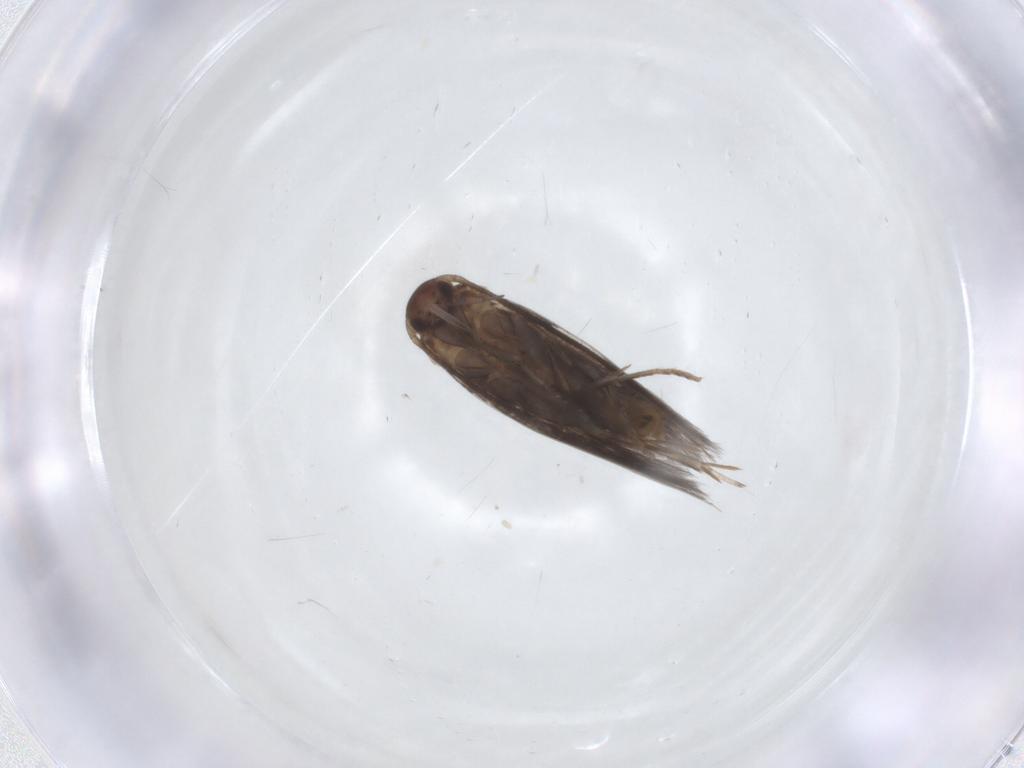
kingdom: Animalia
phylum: Arthropoda
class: Insecta
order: Lepidoptera
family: Elachistidae
